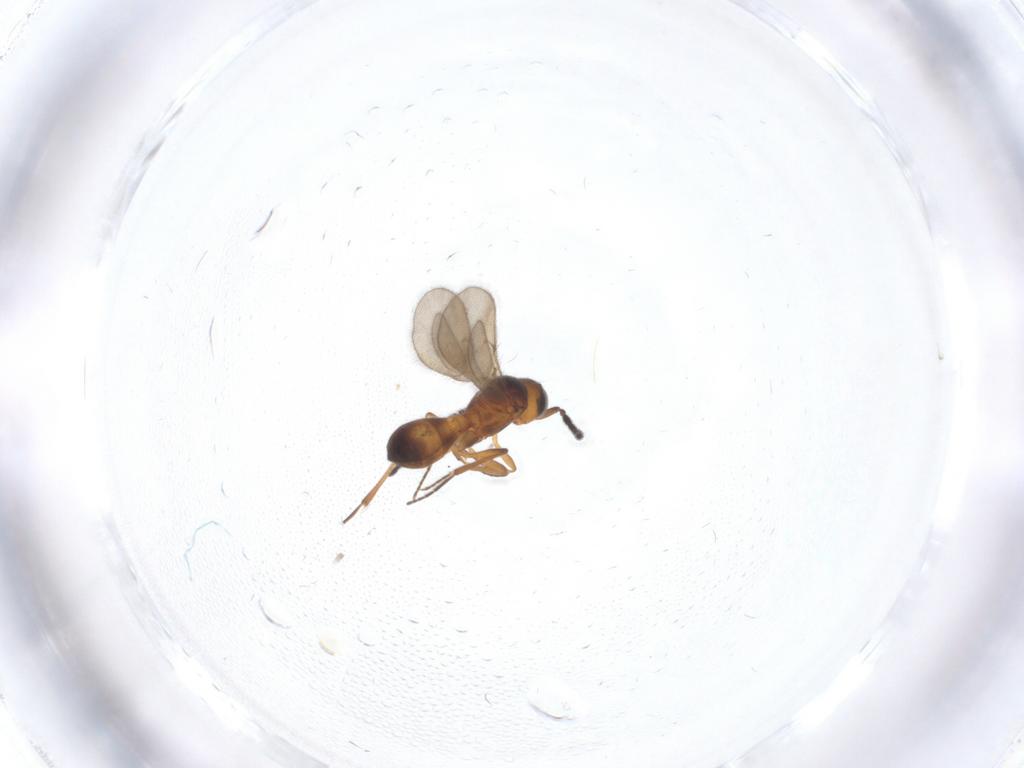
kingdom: Animalia
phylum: Arthropoda
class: Insecta
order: Hymenoptera
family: Scelionidae
